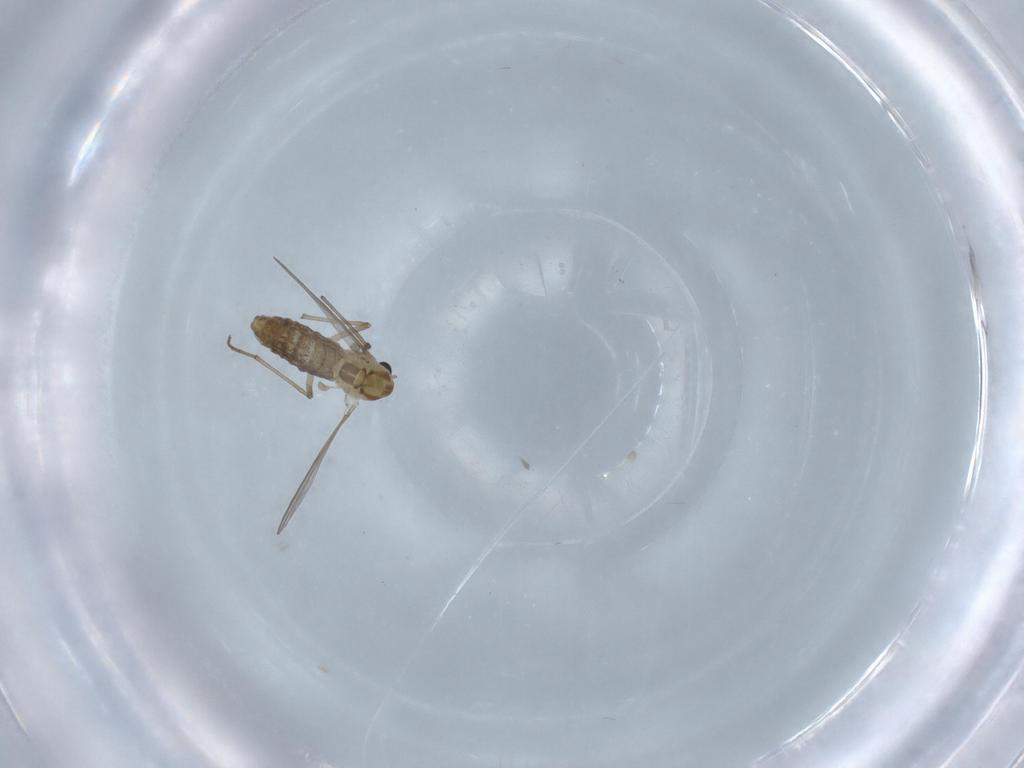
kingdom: Animalia
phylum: Arthropoda
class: Insecta
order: Diptera
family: Chironomidae
